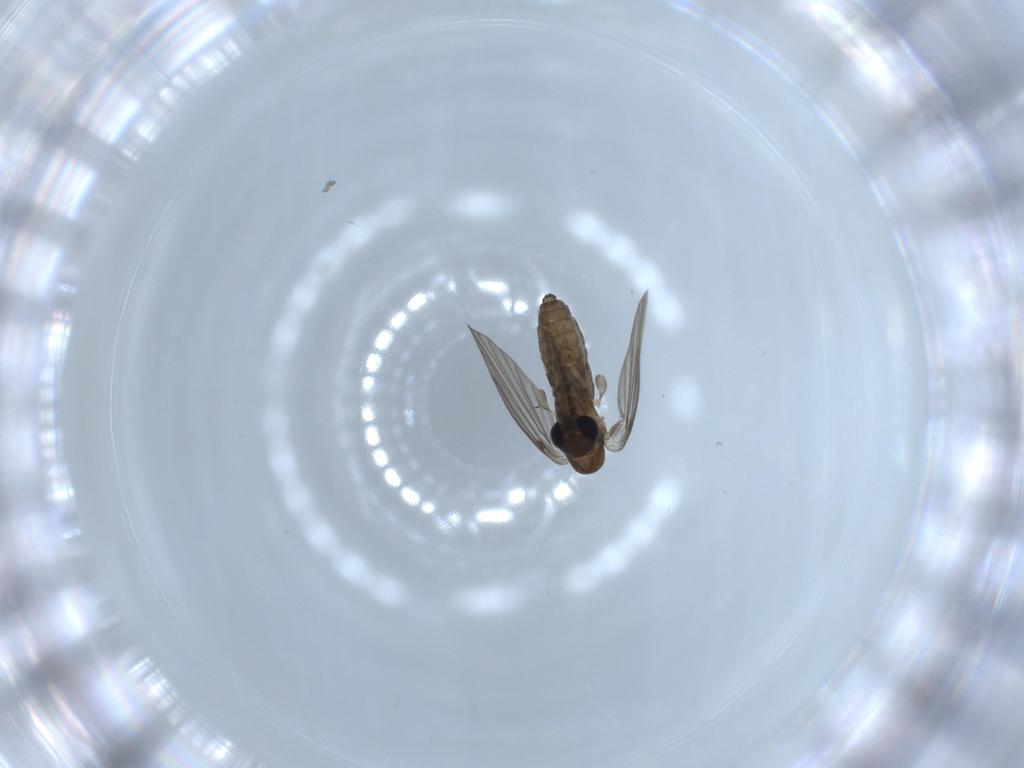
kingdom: Animalia
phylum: Arthropoda
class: Insecta
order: Diptera
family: Psychodidae
